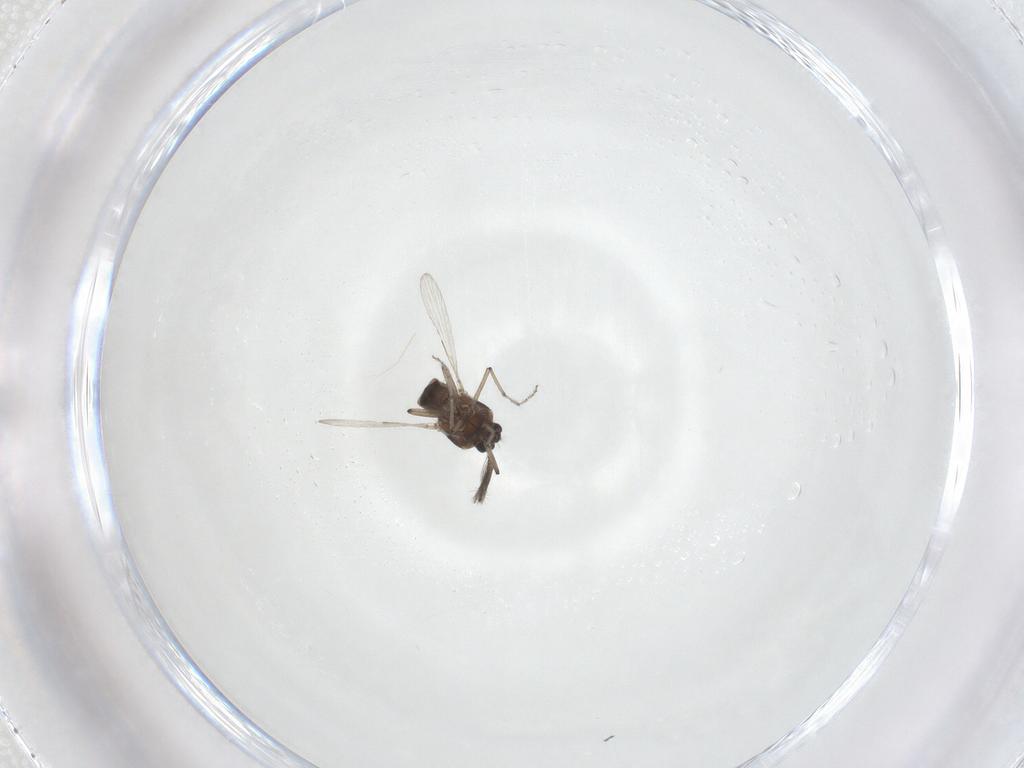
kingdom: Animalia
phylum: Arthropoda
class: Insecta
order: Diptera
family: Ceratopogonidae
